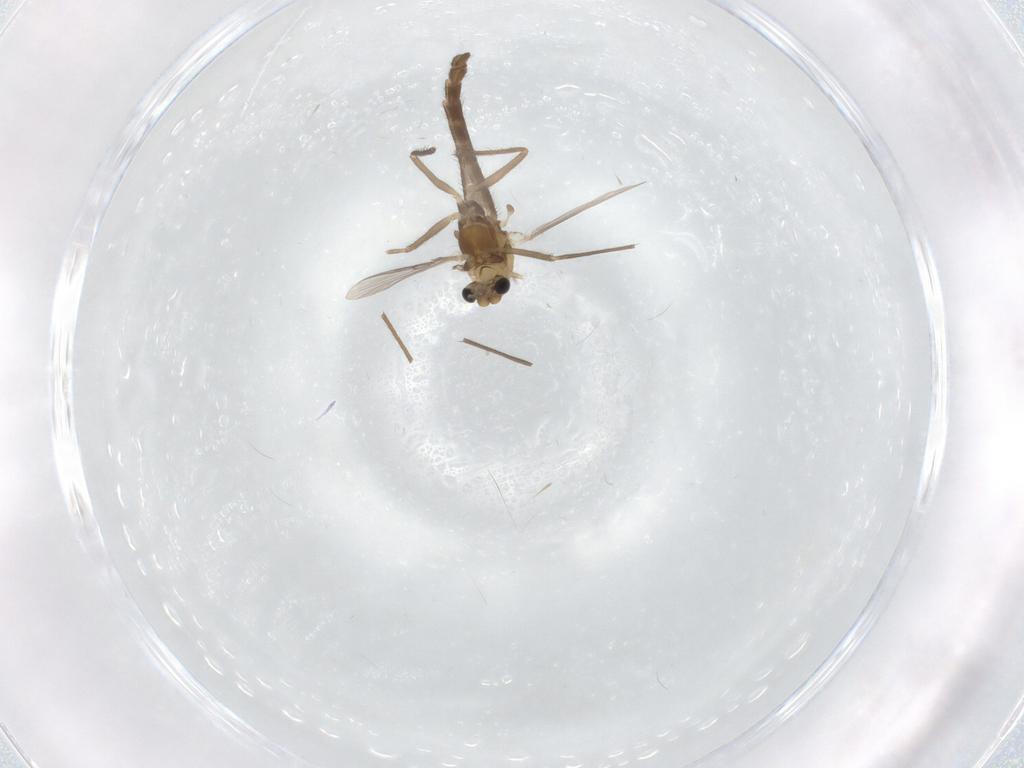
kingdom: Animalia
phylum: Arthropoda
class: Insecta
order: Diptera
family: Chironomidae
